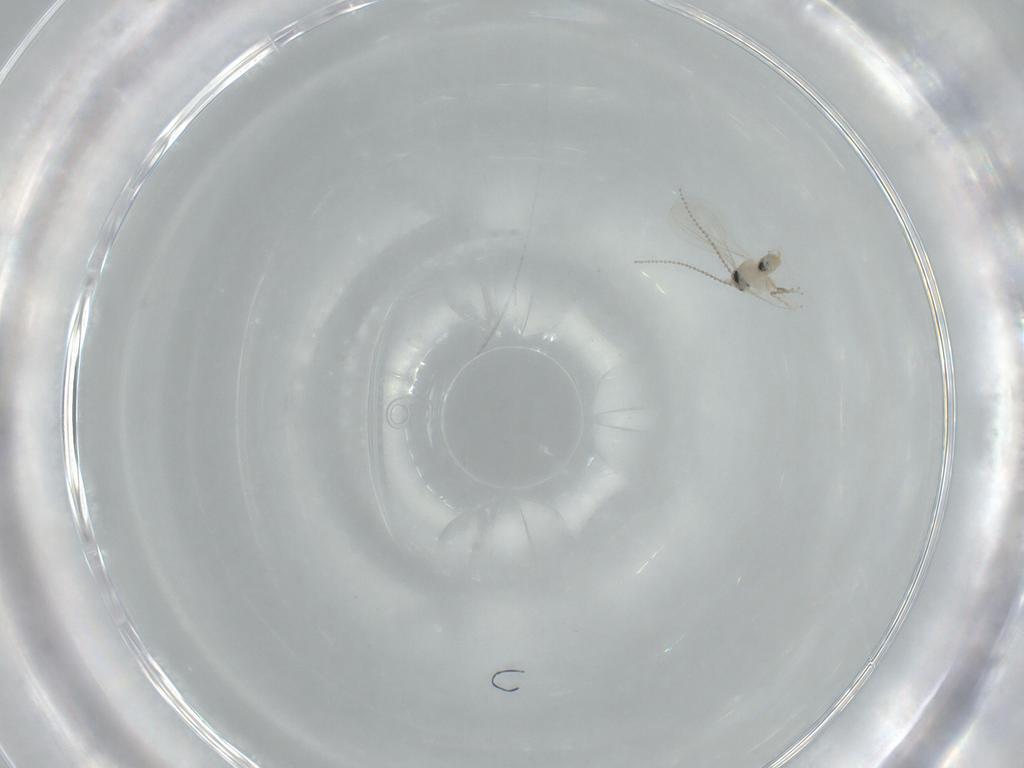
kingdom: Animalia
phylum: Arthropoda
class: Insecta
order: Diptera
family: Cecidomyiidae
